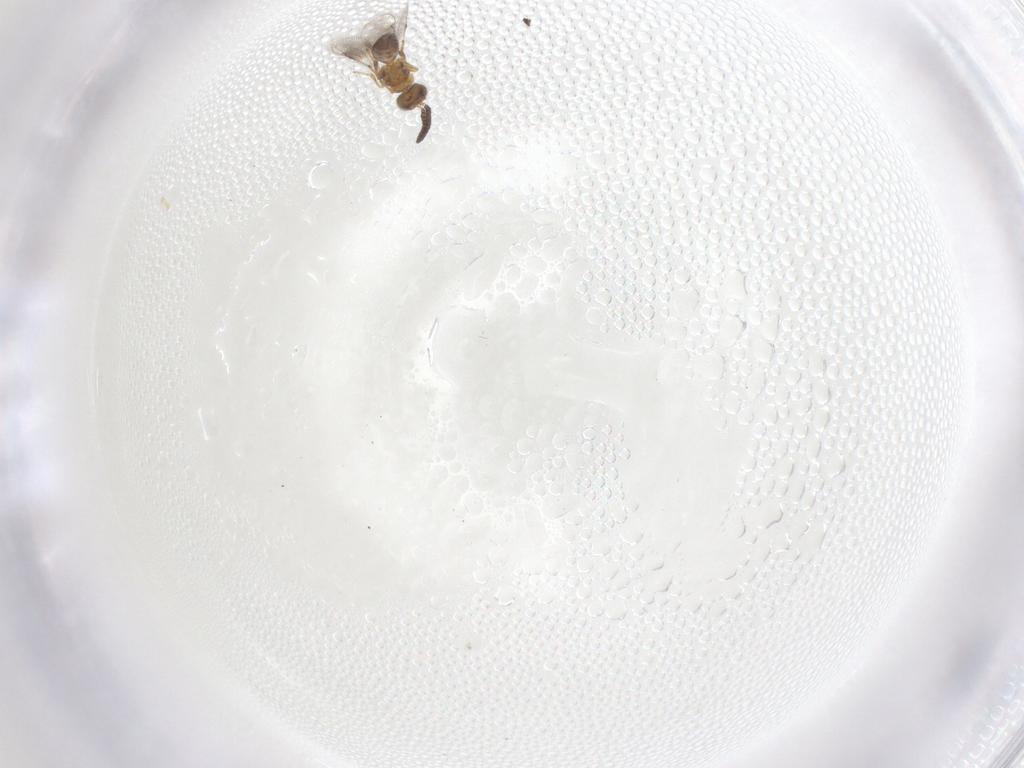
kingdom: Animalia
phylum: Arthropoda
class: Insecta
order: Hymenoptera
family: Pteromalidae
